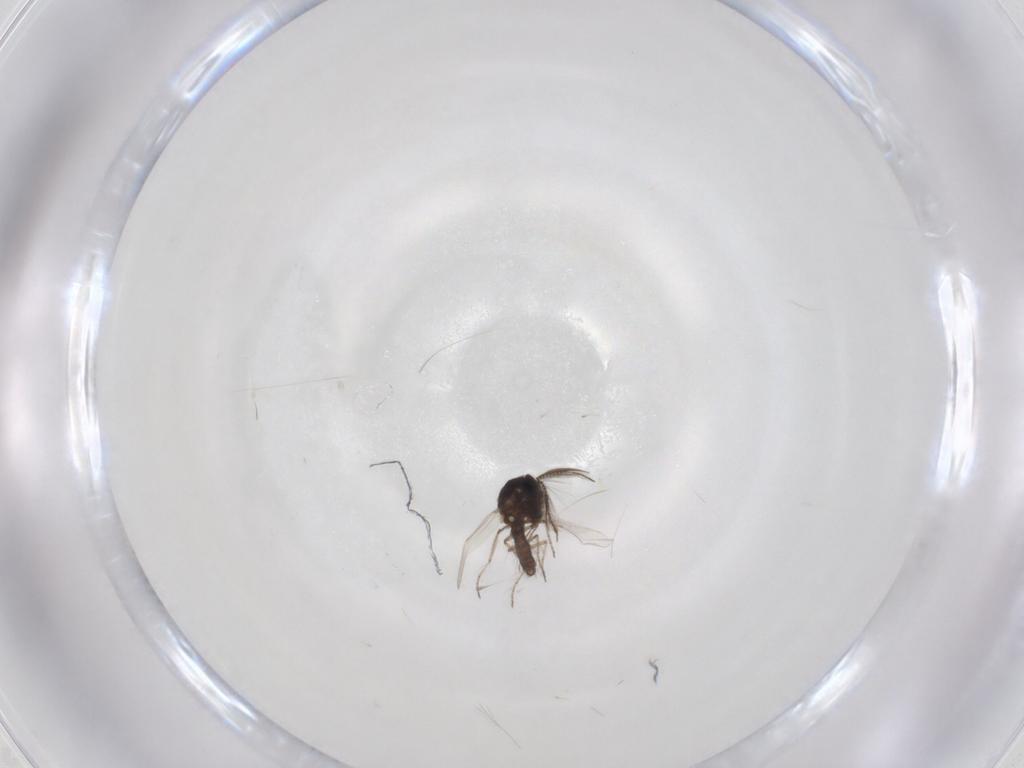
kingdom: Animalia
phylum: Arthropoda
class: Insecta
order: Diptera
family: Ceratopogonidae
